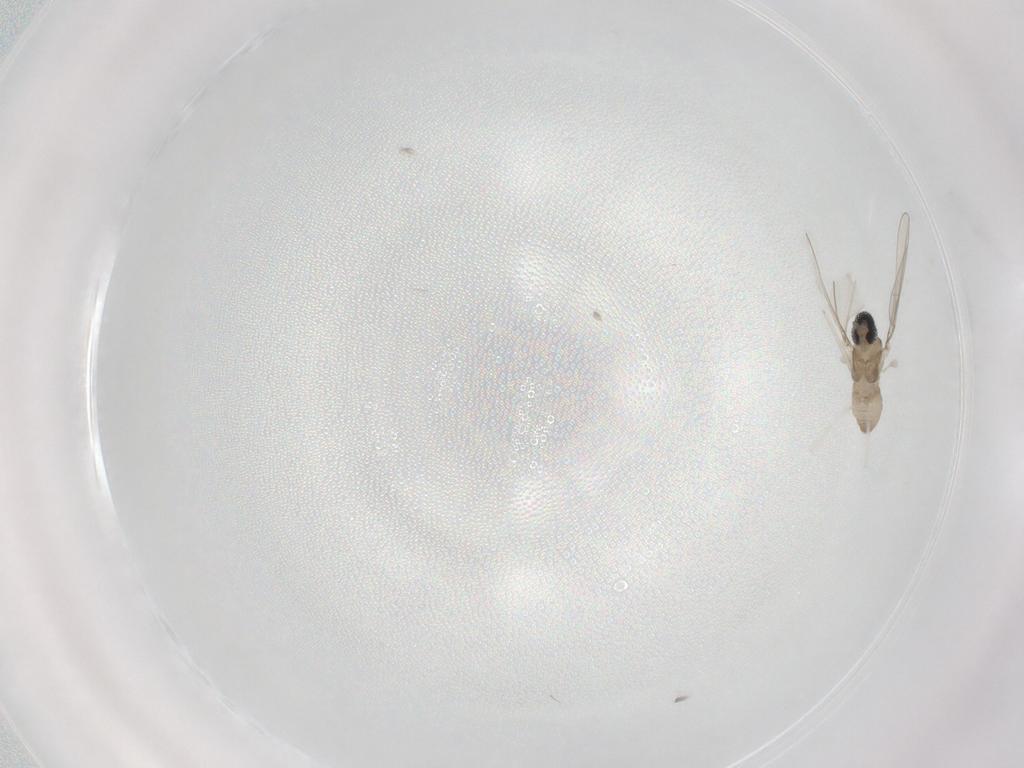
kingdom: Animalia
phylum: Arthropoda
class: Insecta
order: Diptera
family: Cecidomyiidae
